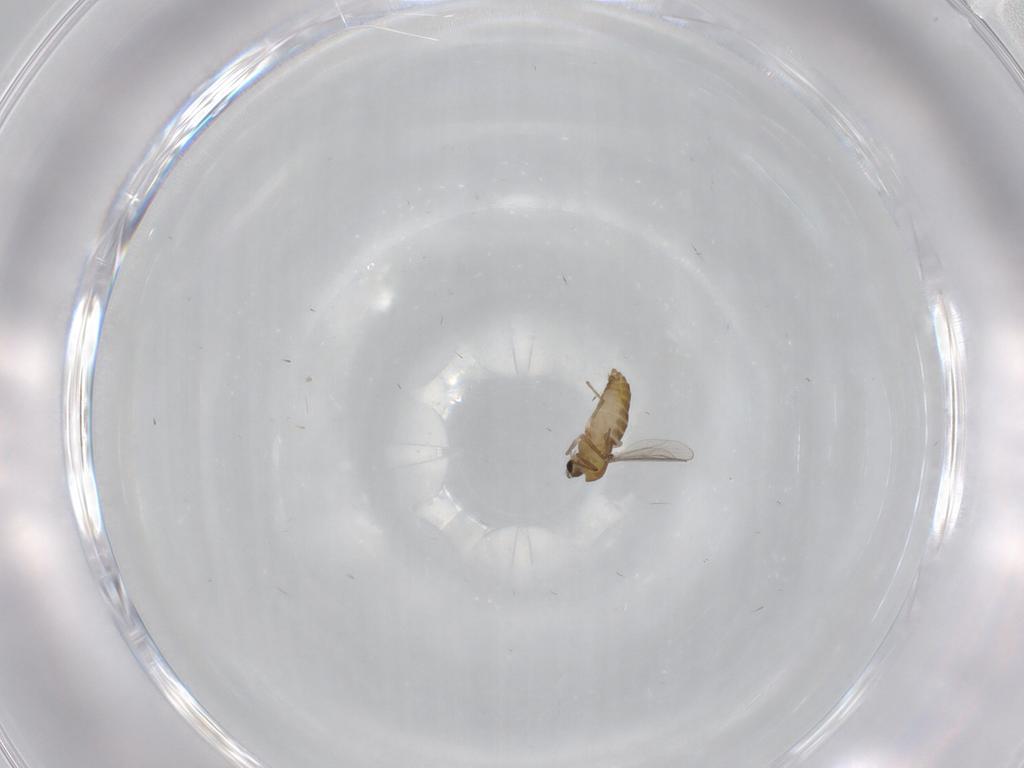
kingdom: Animalia
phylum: Arthropoda
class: Insecta
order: Diptera
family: Chironomidae
